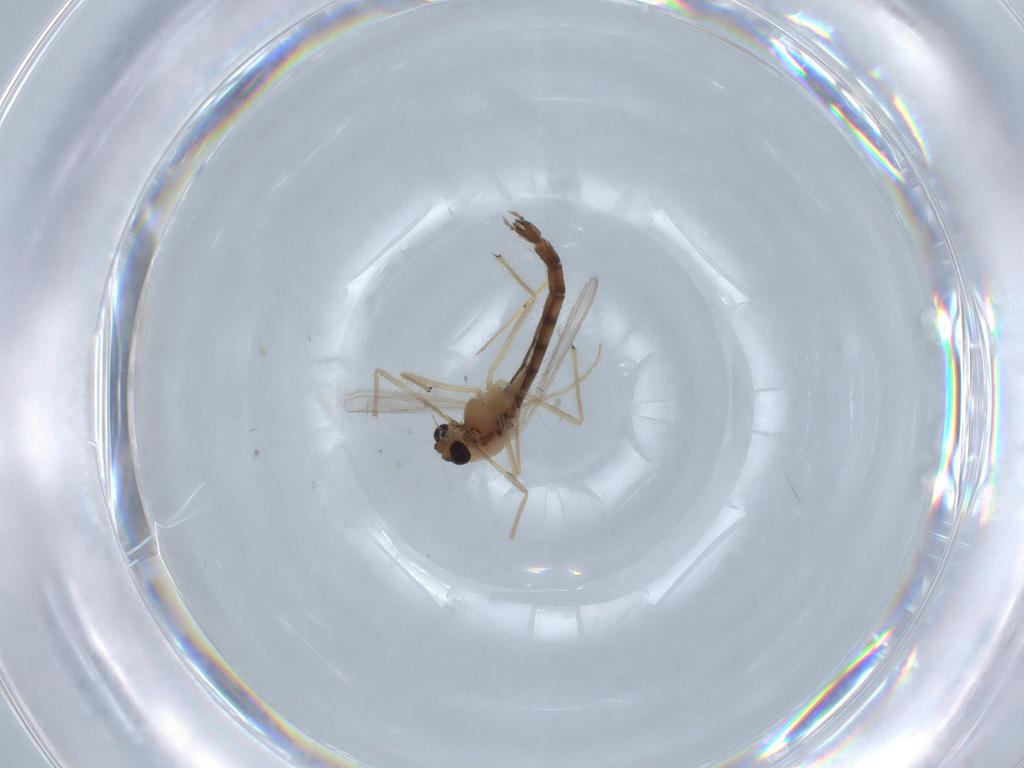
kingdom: Animalia
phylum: Arthropoda
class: Insecta
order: Diptera
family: Chironomidae
